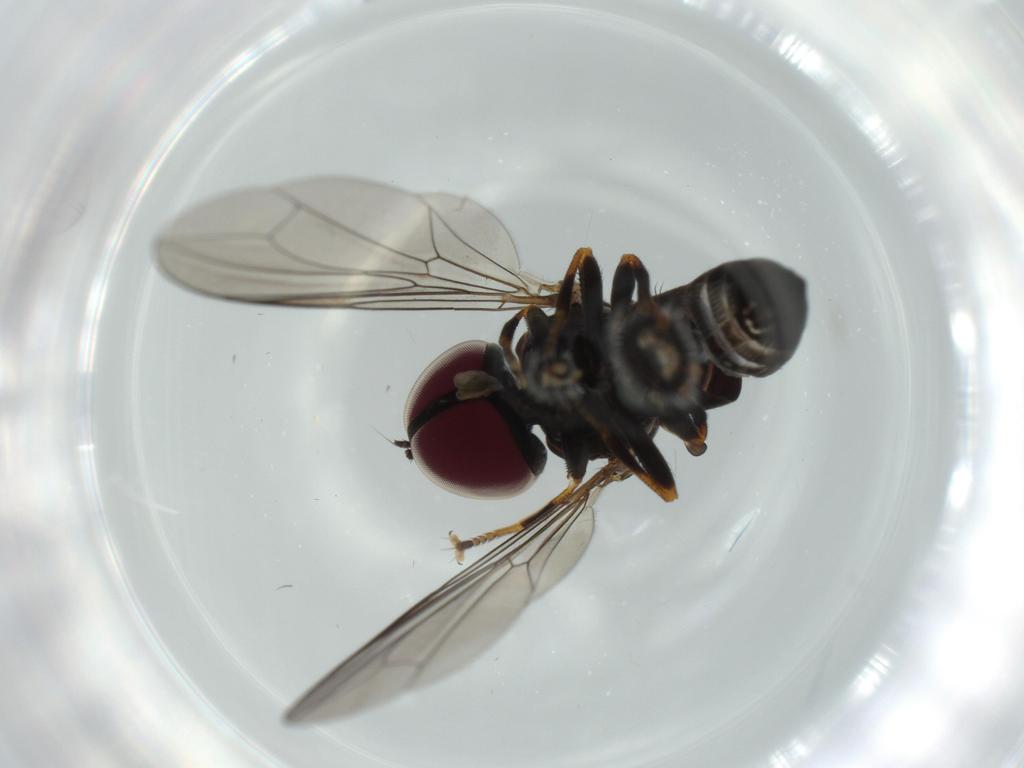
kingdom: Animalia
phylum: Arthropoda
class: Insecta
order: Diptera
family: Pipunculidae
